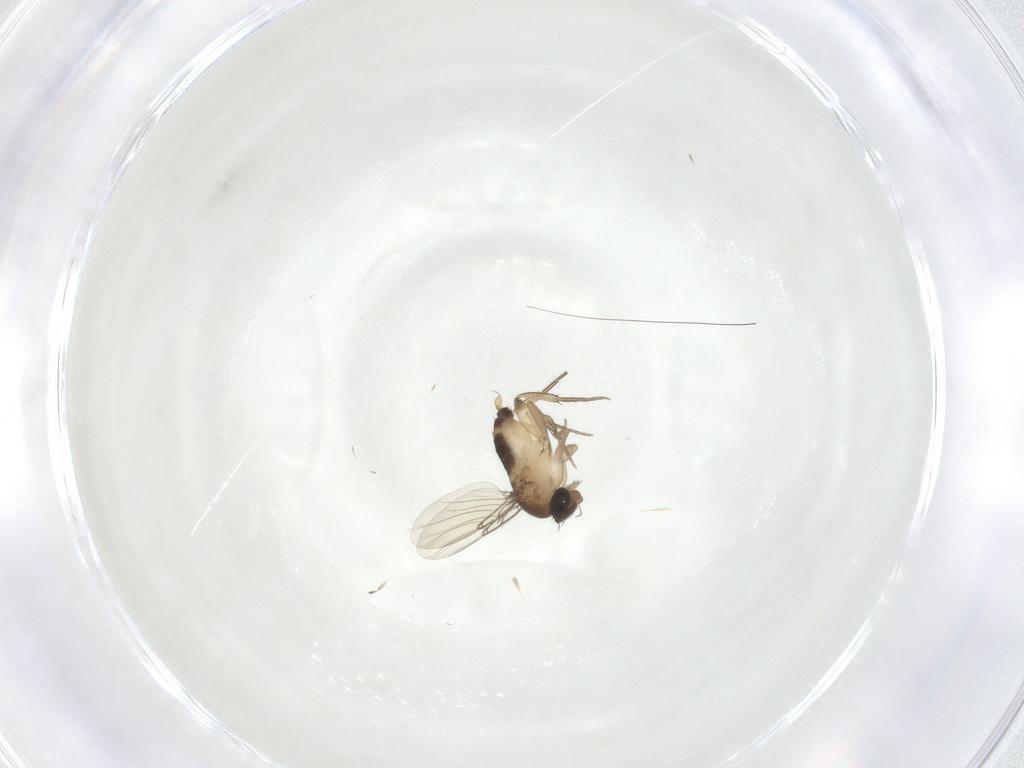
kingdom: Animalia
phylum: Arthropoda
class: Insecta
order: Diptera
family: Phoridae
